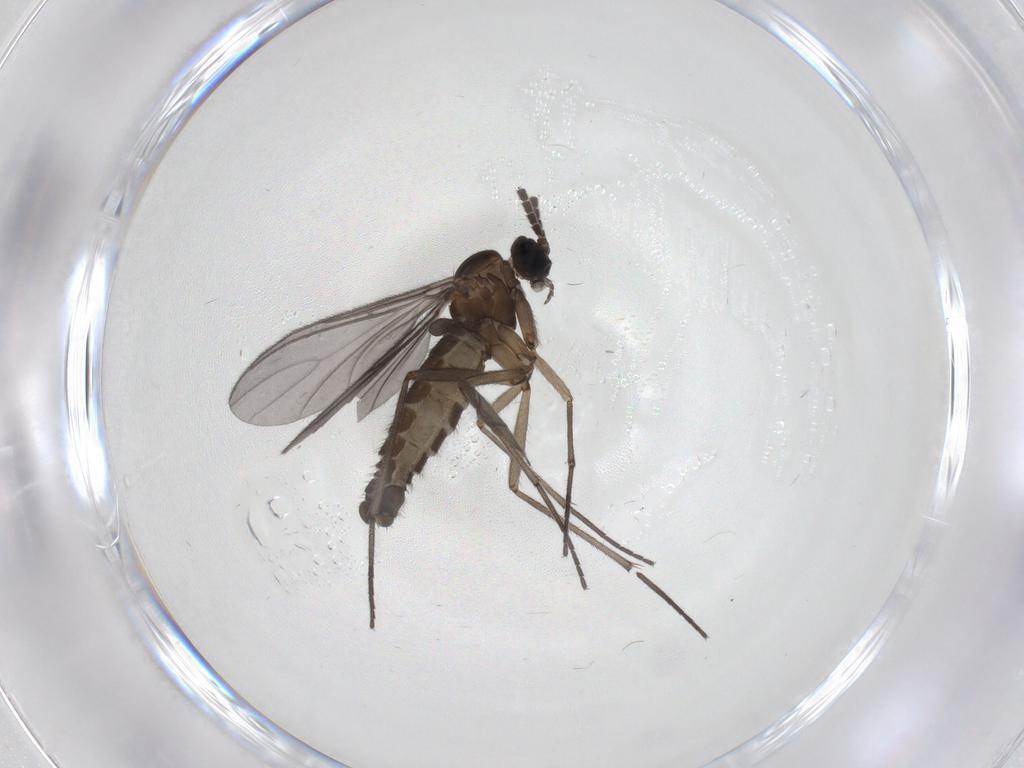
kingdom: Animalia
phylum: Arthropoda
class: Insecta
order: Diptera
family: Sciaridae
